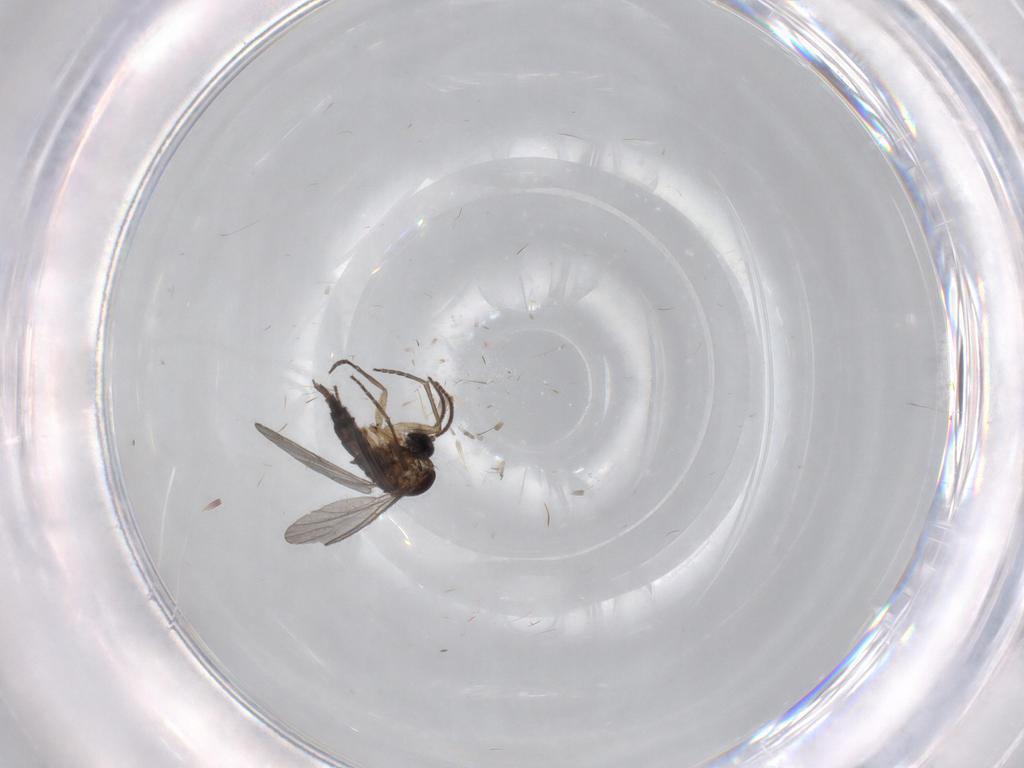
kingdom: Animalia
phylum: Arthropoda
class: Insecta
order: Diptera
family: Sciaridae
